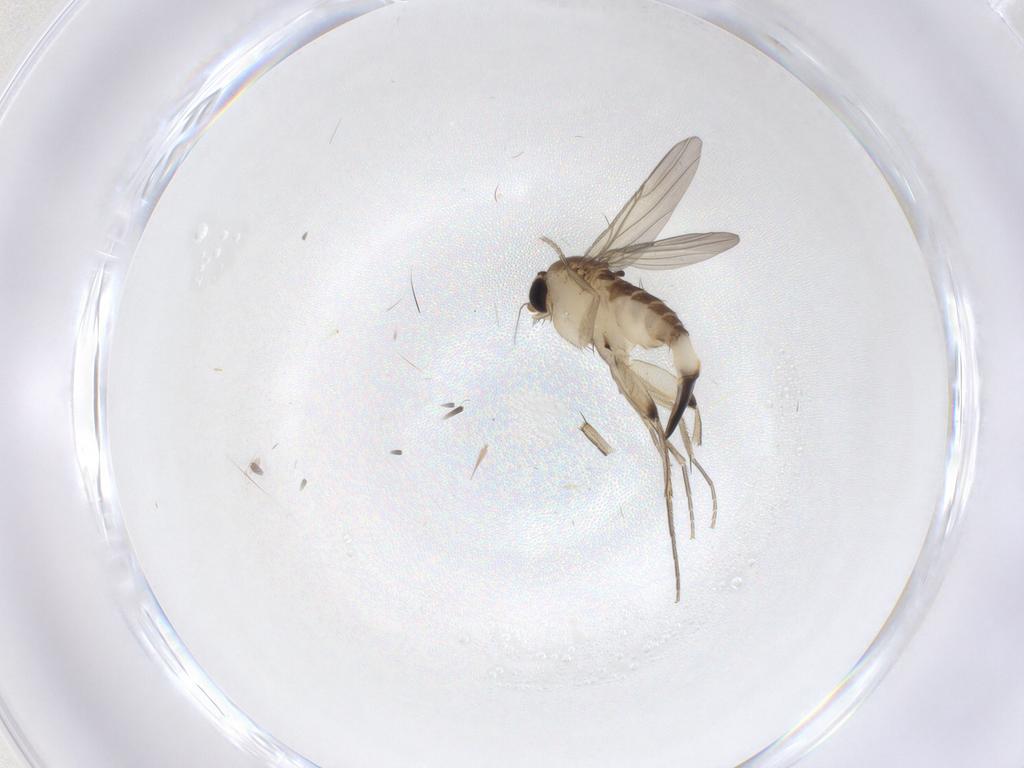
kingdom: Animalia
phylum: Arthropoda
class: Insecta
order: Diptera
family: Phoridae
